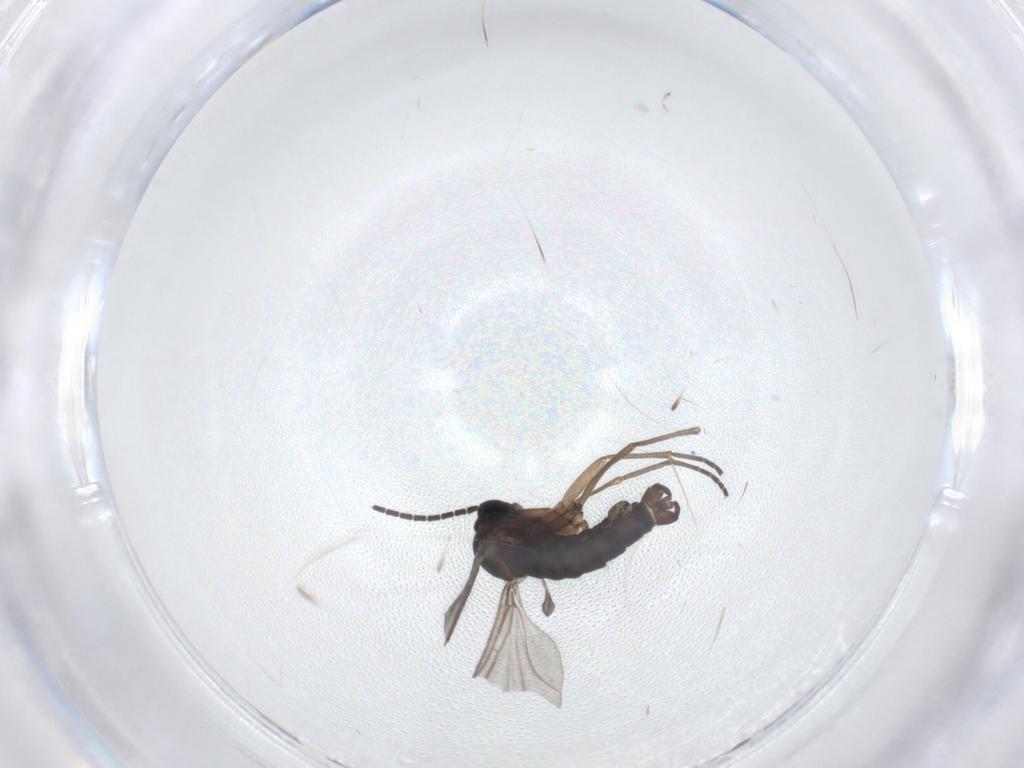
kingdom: Animalia
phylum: Arthropoda
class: Insecta
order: Diptera
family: Sciaridae
